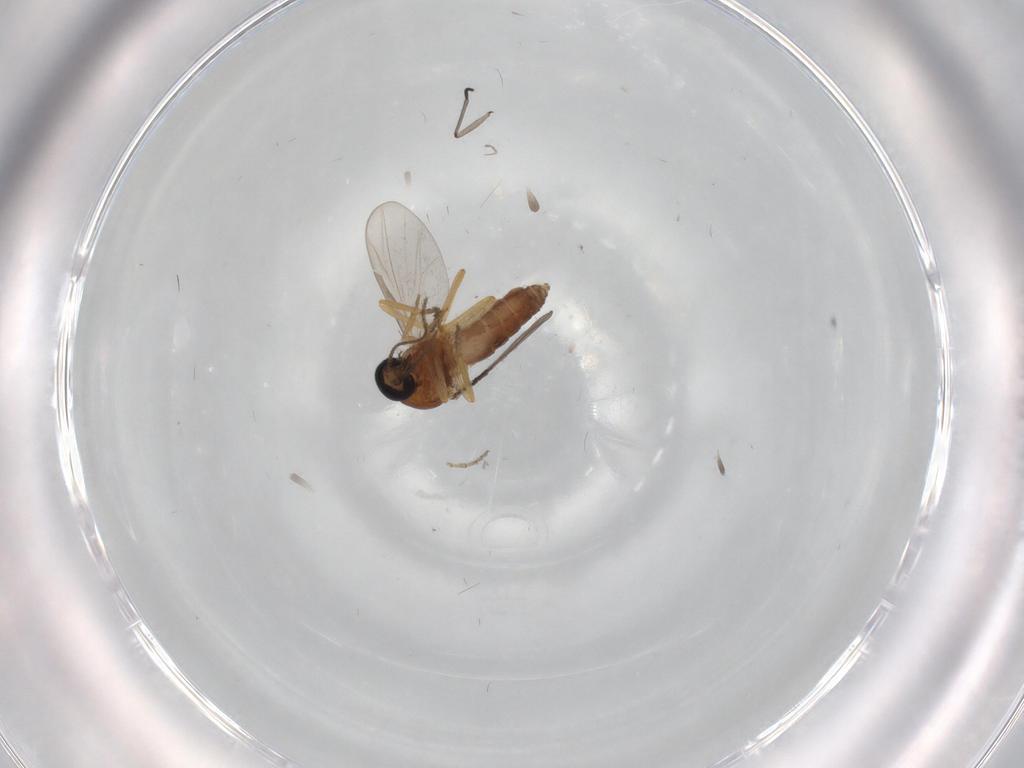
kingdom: Animalia
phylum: Arthropoda
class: Insecta
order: Diptera
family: Ceratopogonidae
